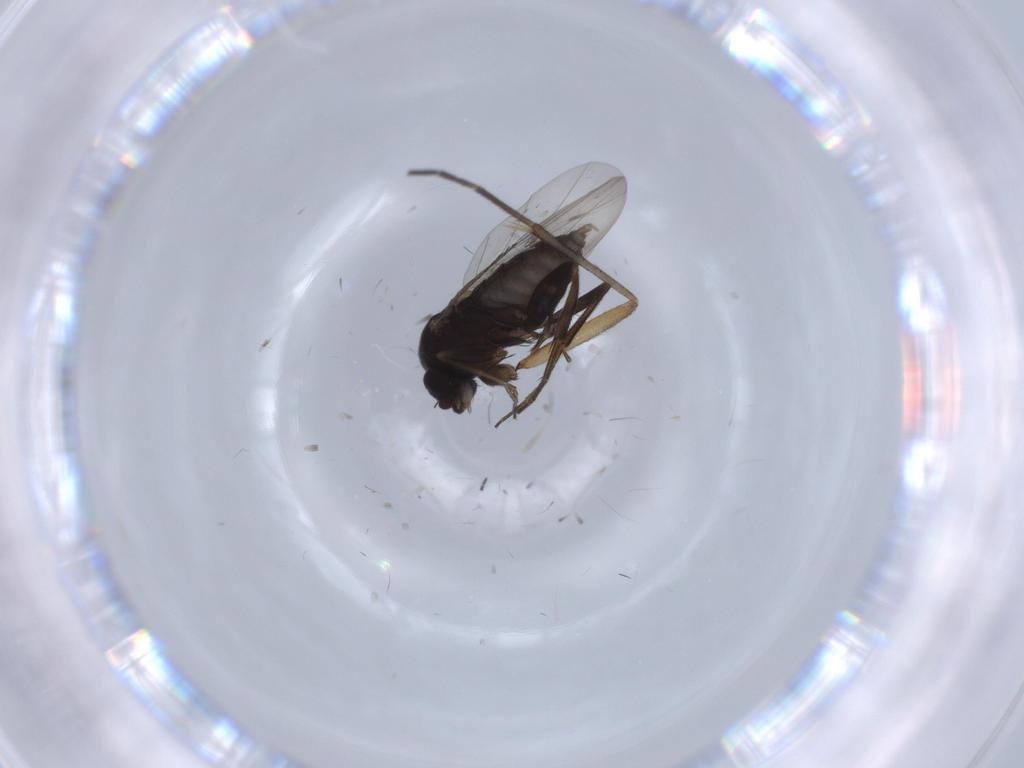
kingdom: Animalia
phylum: Arthropoda
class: Insecta
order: Diptera
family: Phoridae
